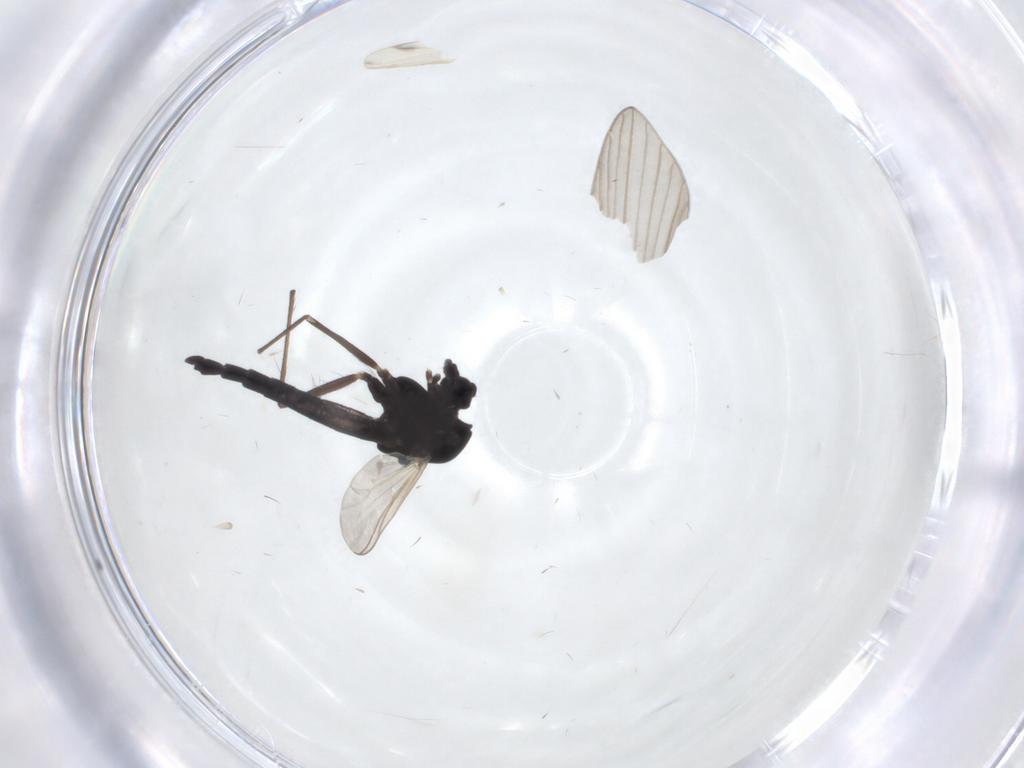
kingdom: Animalia
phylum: Arthropoda
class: Insecta
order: Diptera
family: Chironomidae
